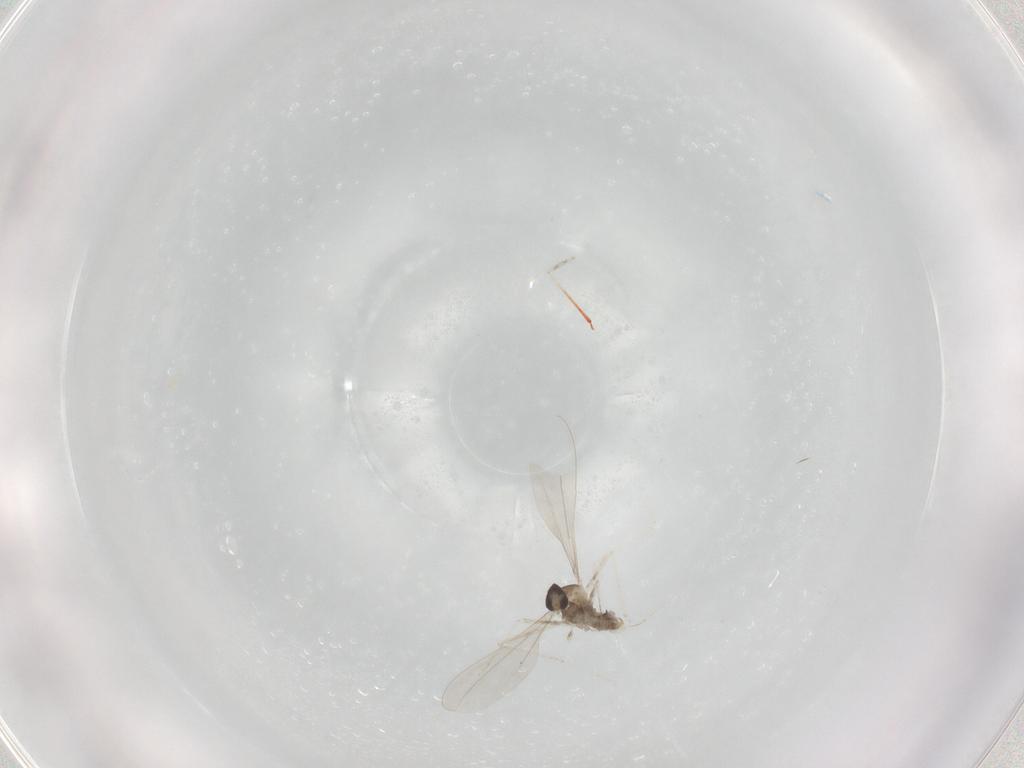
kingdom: Animalia
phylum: Arthropoda
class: Insecta
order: Diptera
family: Cecidomyiidae
